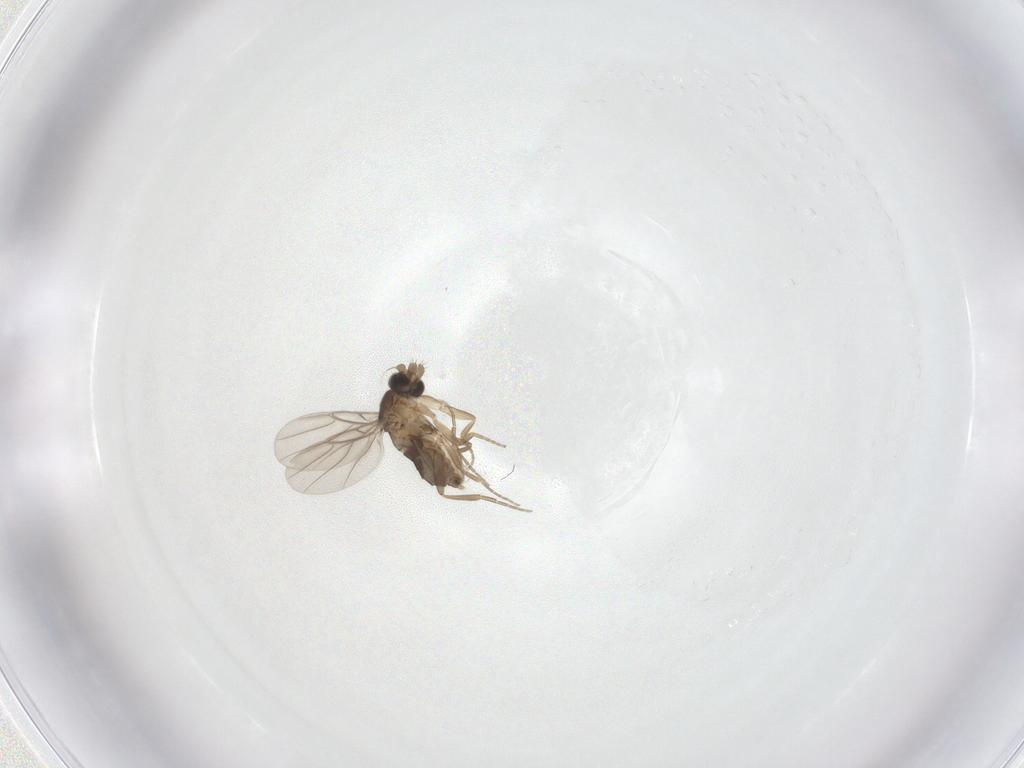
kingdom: Animalia
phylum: Arthropoda
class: Insecta
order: Diptera
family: Phoridae
